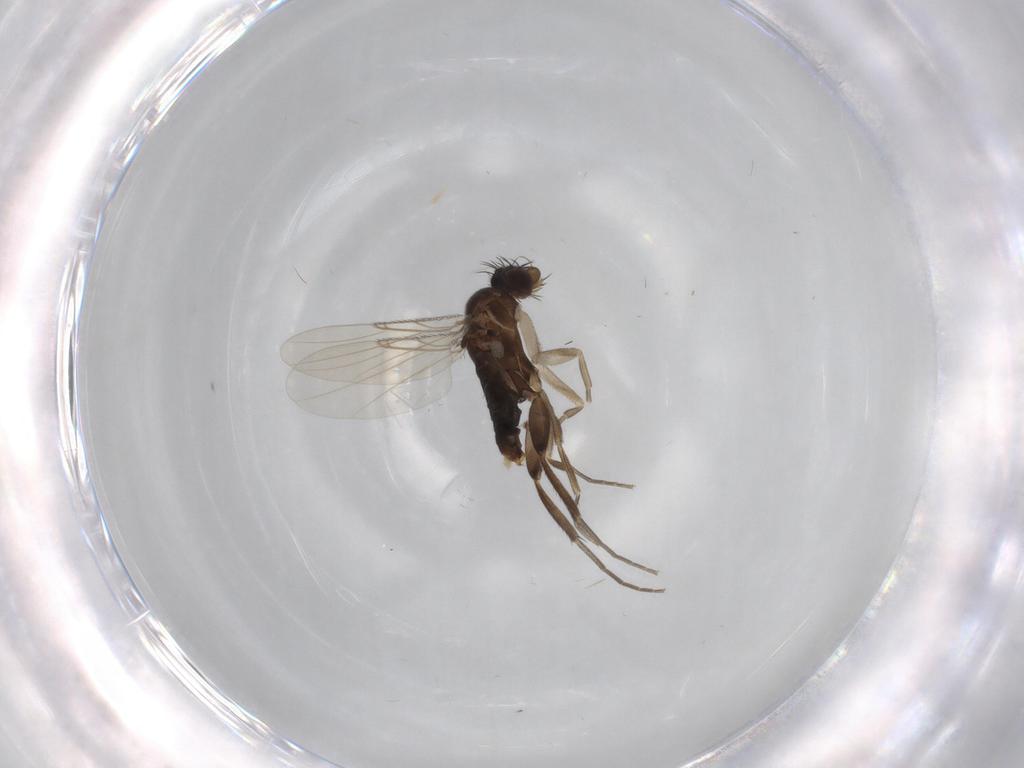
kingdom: Animalia
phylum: Arthropoda
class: Insecta
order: Diptera
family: Phoridae
